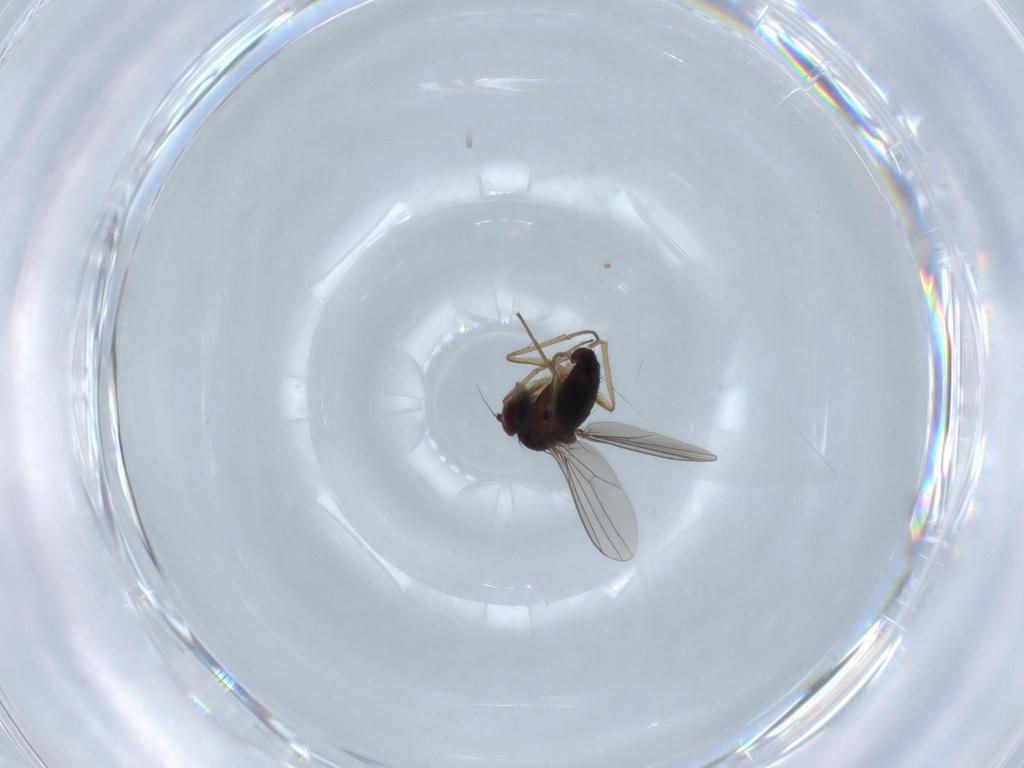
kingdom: Animalia
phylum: Arthropoda
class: Insecta
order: Diptera
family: Dolichopodidae
